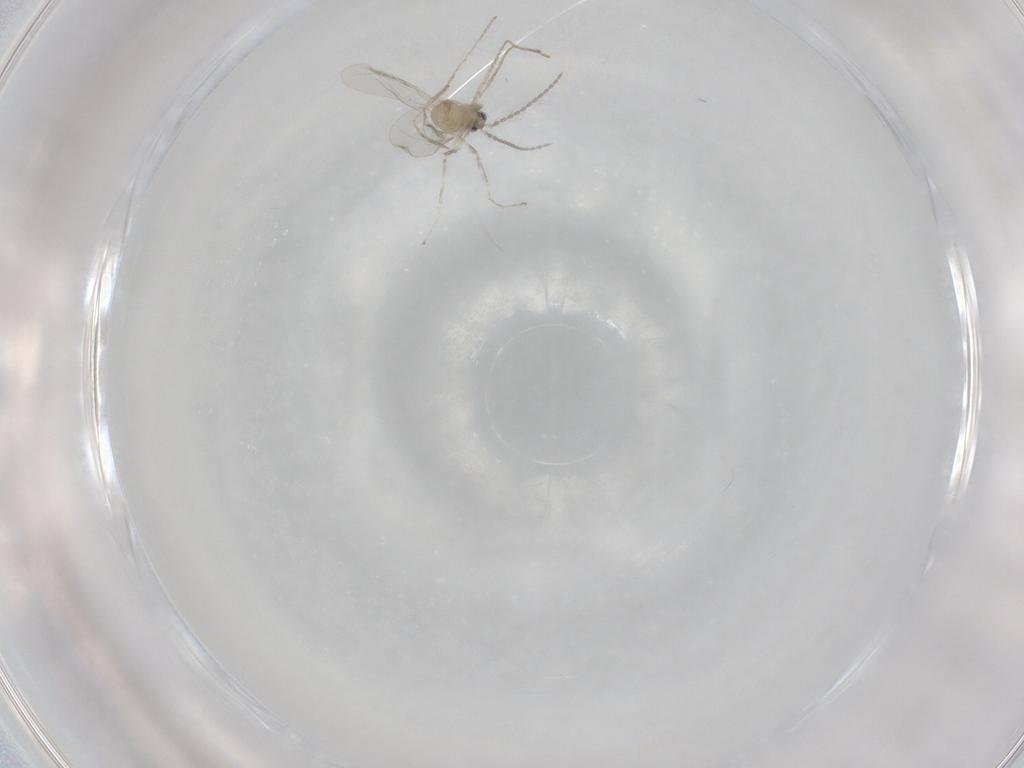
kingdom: Animalia
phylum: Arthropoda
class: Insecta
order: Diptera
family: Cecidomyiidae
